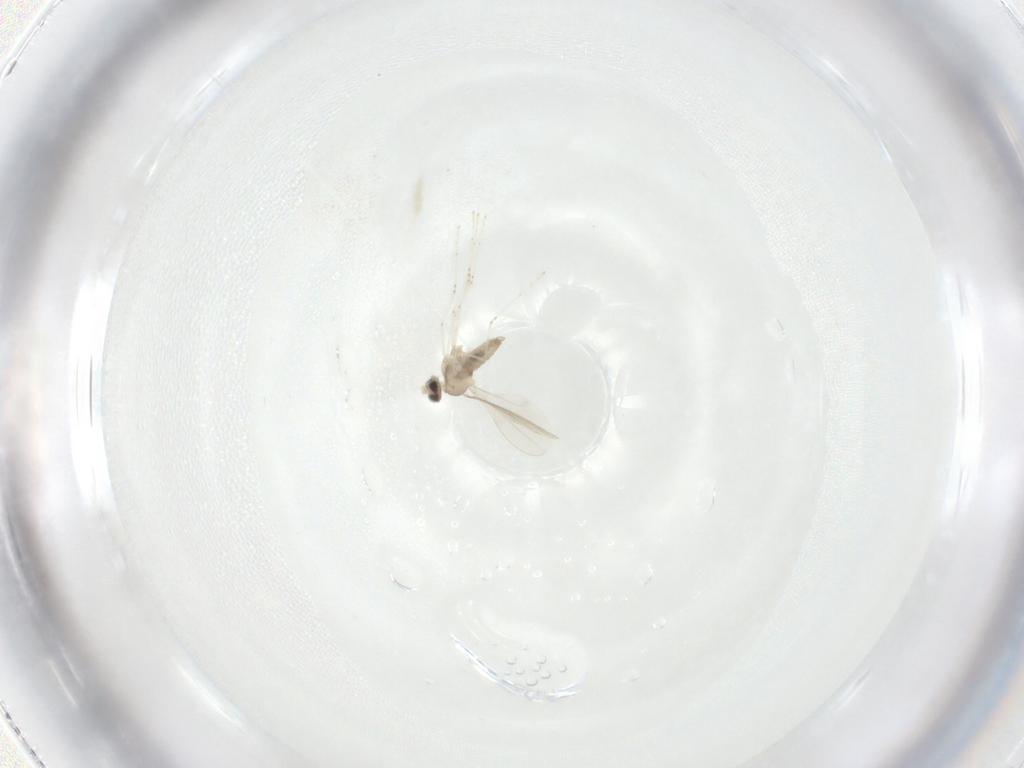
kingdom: Animalia
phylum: Arthropoda
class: Insecta
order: Diptera
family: Cecidomyiidae
